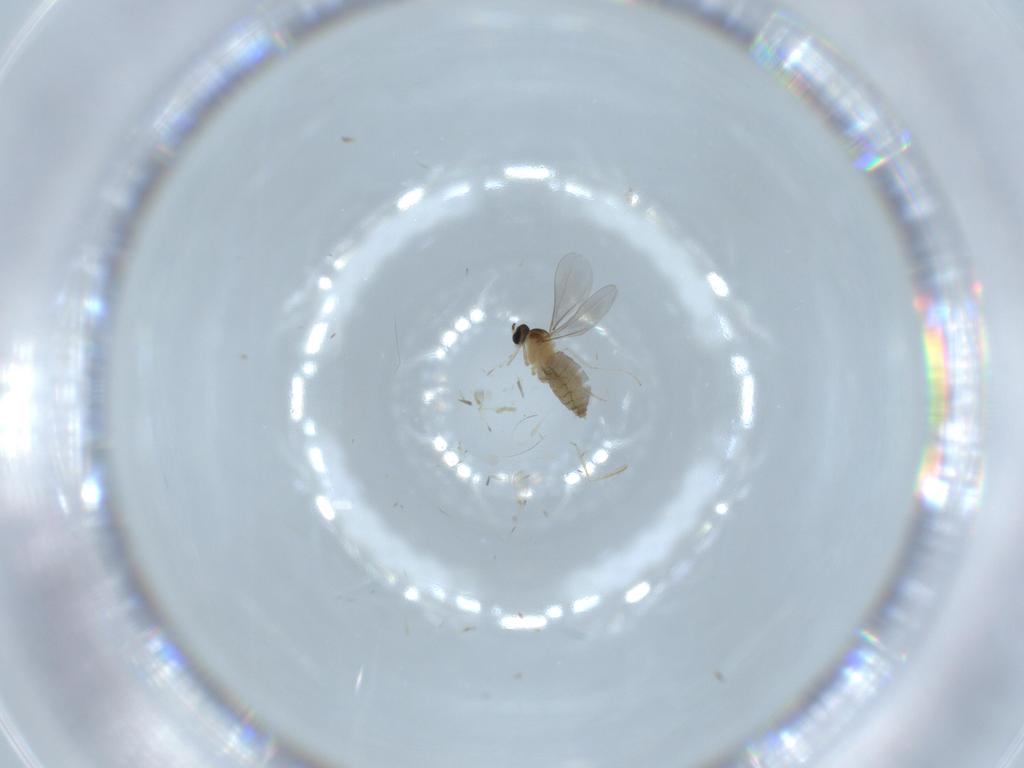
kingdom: Animalia
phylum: Arthropoda
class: Insecta
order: Diptera
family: Cecidomyiidae
